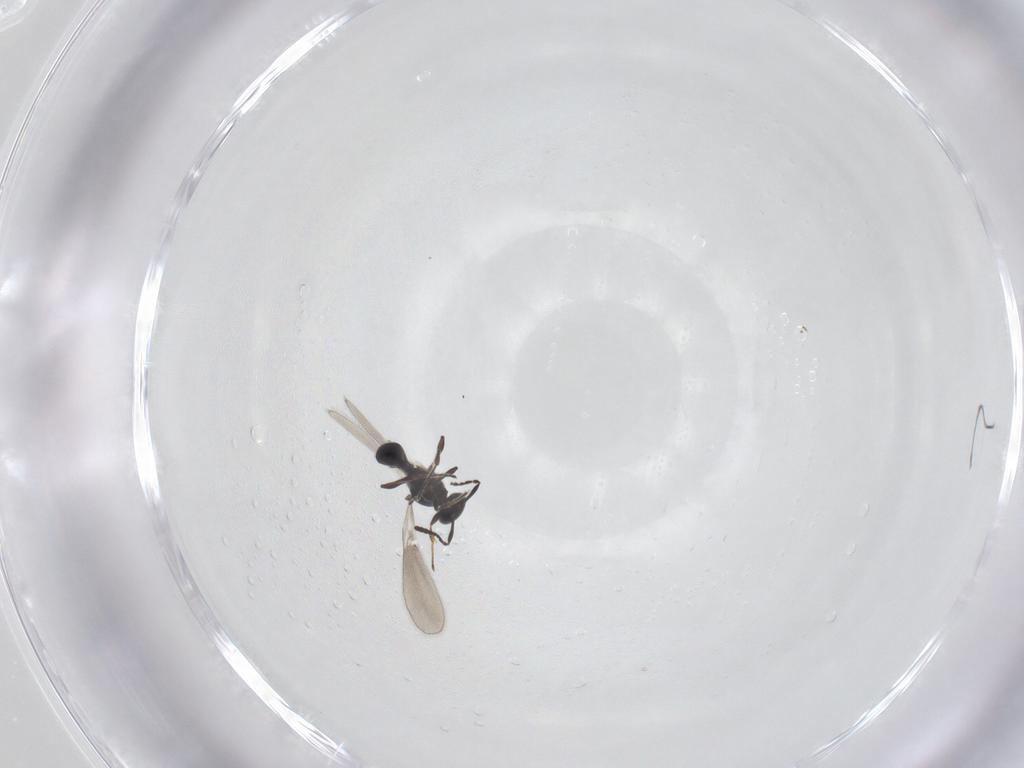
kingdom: Animalia
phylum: Arthropoda
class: Insecta
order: Hymenoptera
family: Platygastridae
